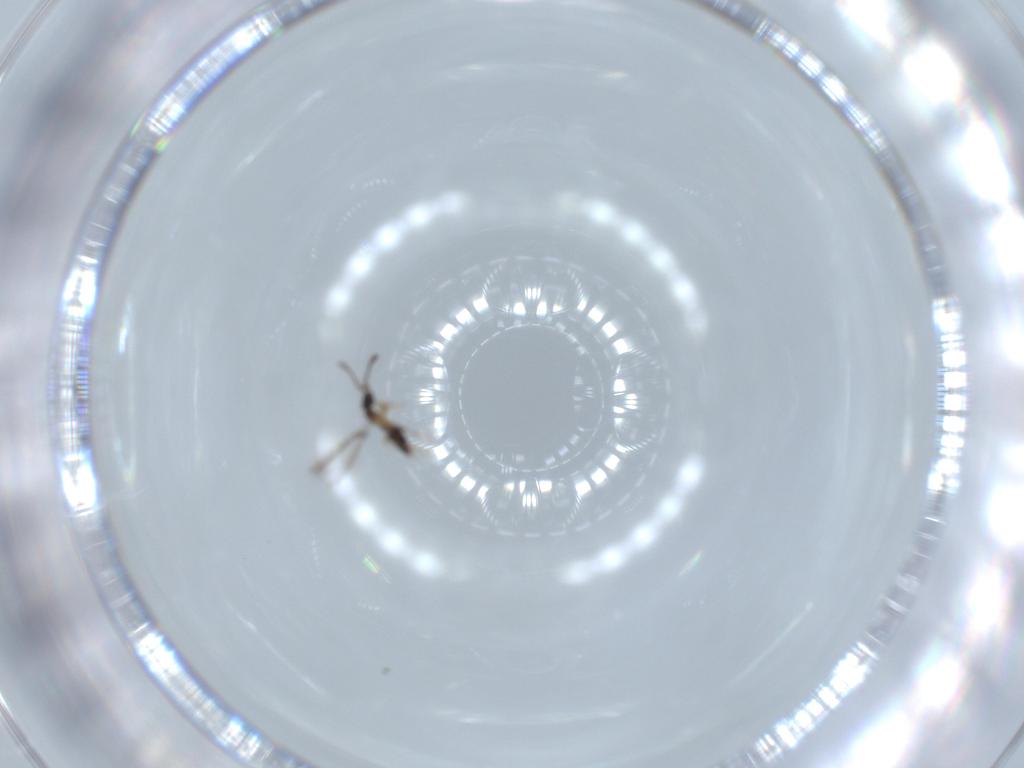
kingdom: Animalia
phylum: Arthropoda
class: Insecta
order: Hymenoptera
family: Mymaridae
